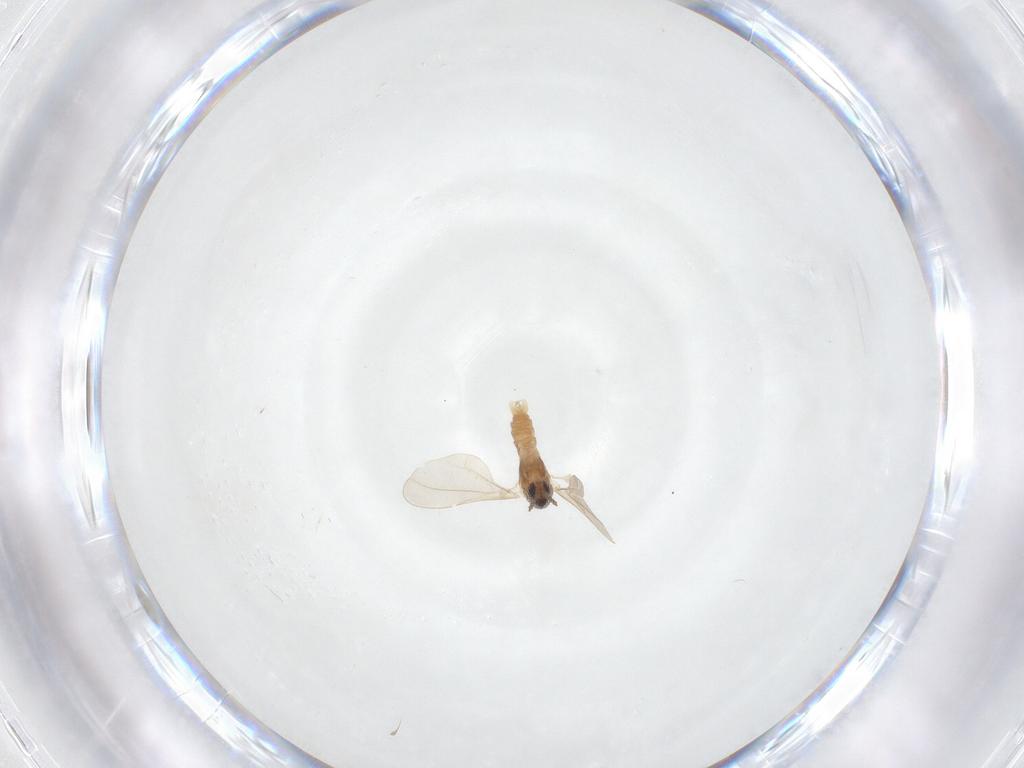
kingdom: Animalia
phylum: Arthropoda
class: Insecta
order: Diptera
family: Cecidomyiidae
